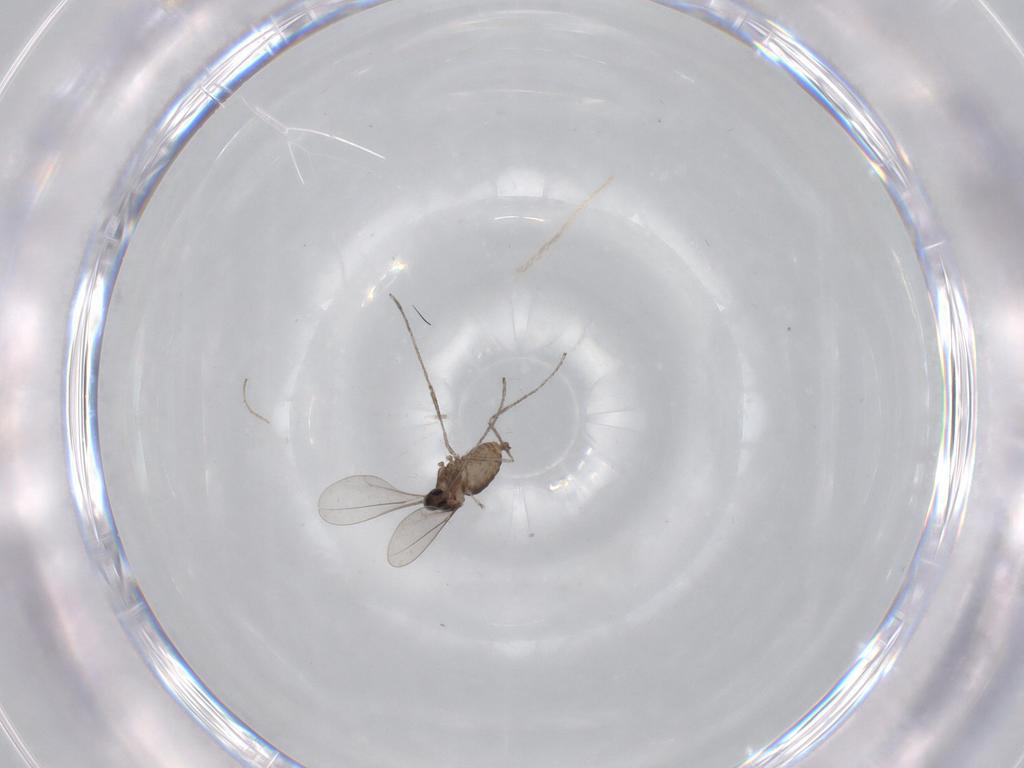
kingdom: Animalia
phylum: Arthropoda
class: Insecta
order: Diptera
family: Chironomidae
